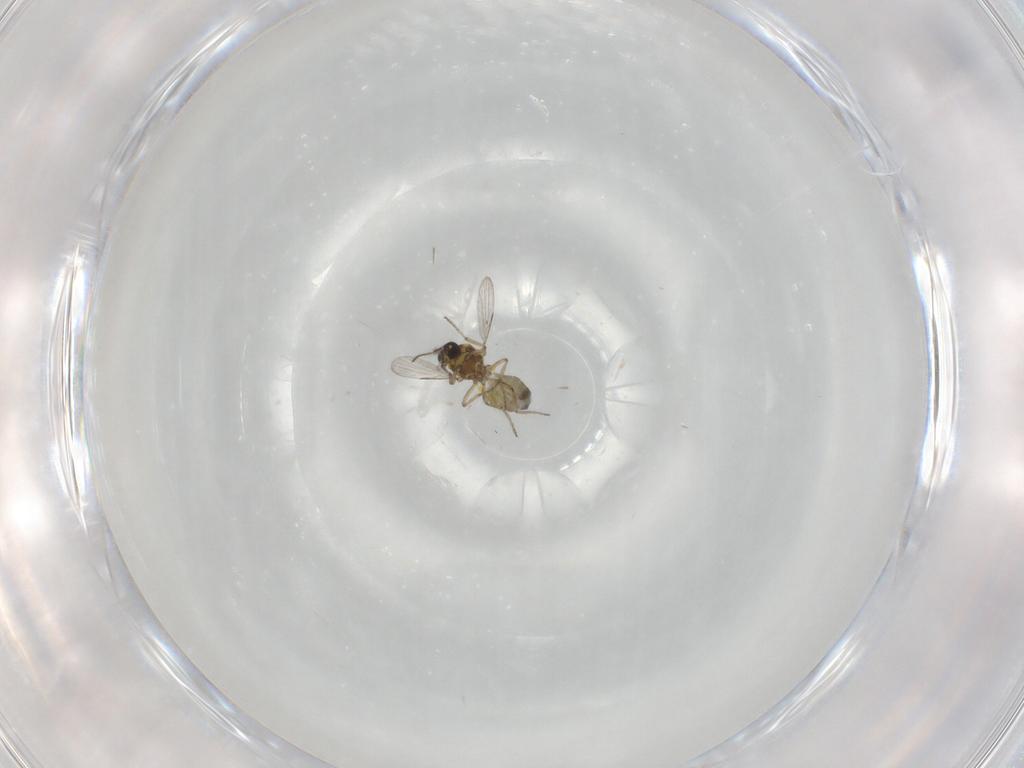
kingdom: Animalia
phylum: Arthropoda
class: Insecta
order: Diptera
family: Ceratopogonidae
